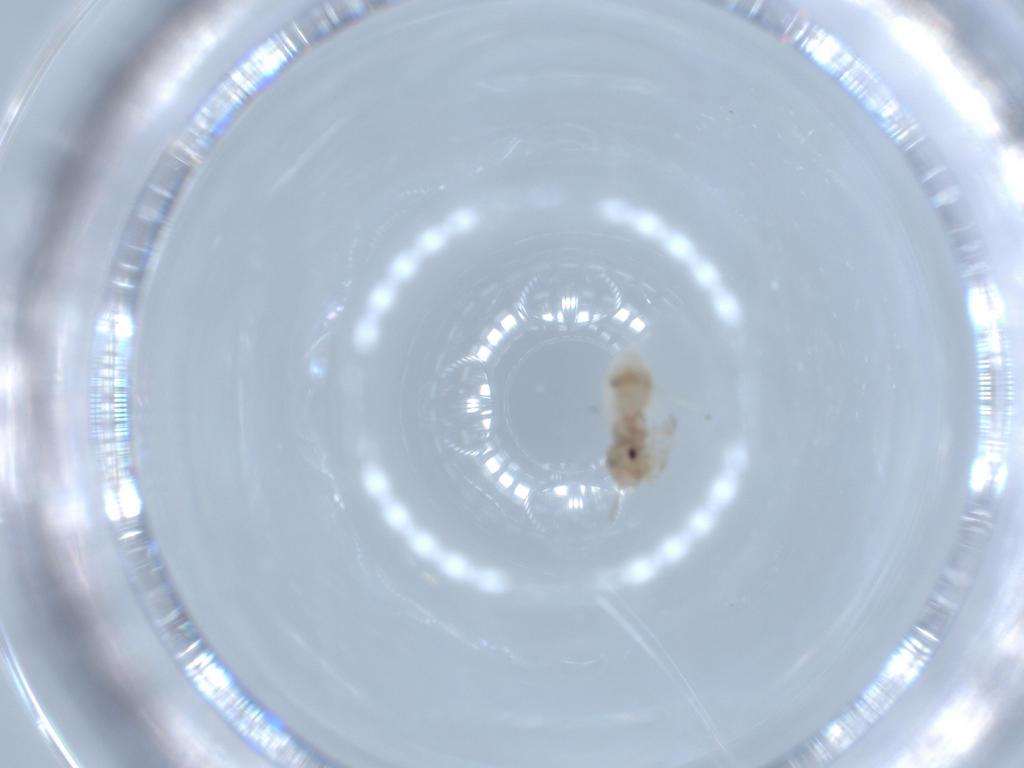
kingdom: Animalia
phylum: Arthropoda
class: Insecta
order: Psocodea
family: Amphipsocidae
